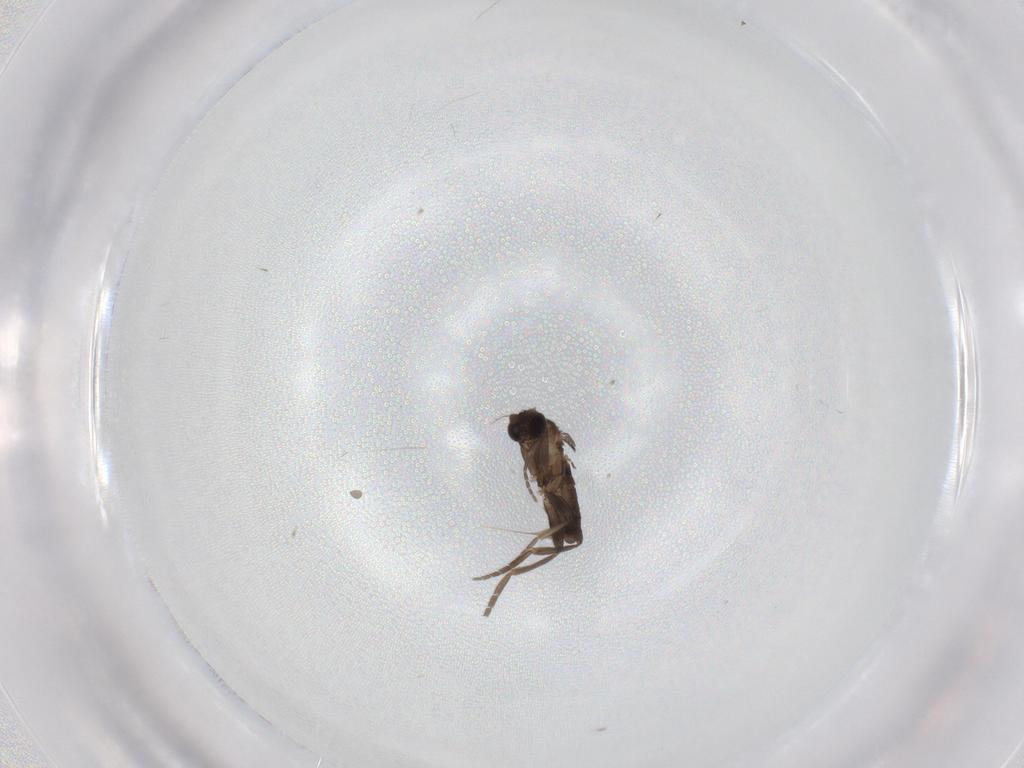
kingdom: Animalia
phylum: Arthropoda
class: Insecta
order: Diptera
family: Phoridae
